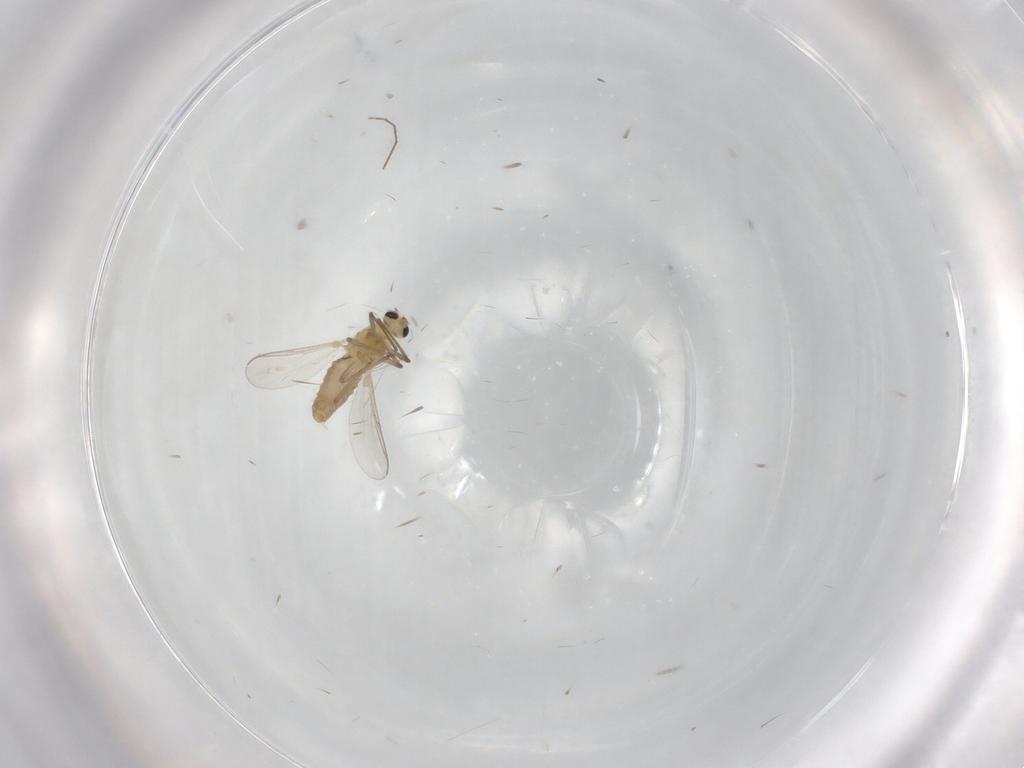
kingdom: Animalia
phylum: Arthropoda
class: Insecta
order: Diptera
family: Chironomidae
